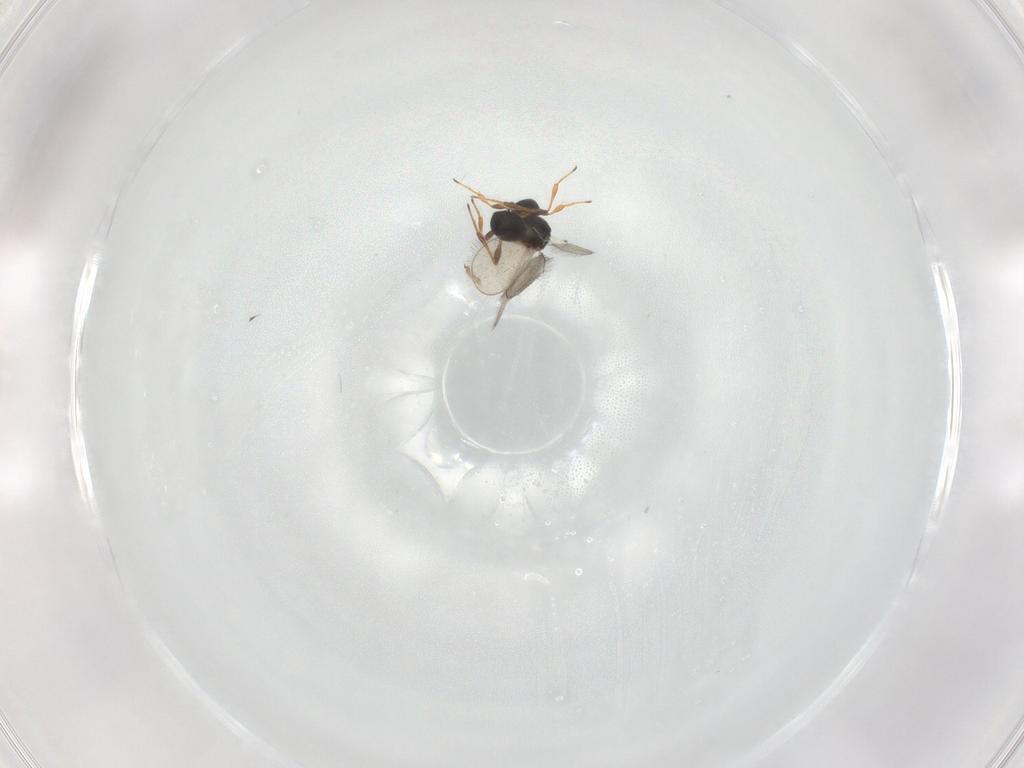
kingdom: Animalia
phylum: Arthropoda
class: Insecta
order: Hymenoptera
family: Platygastridae
